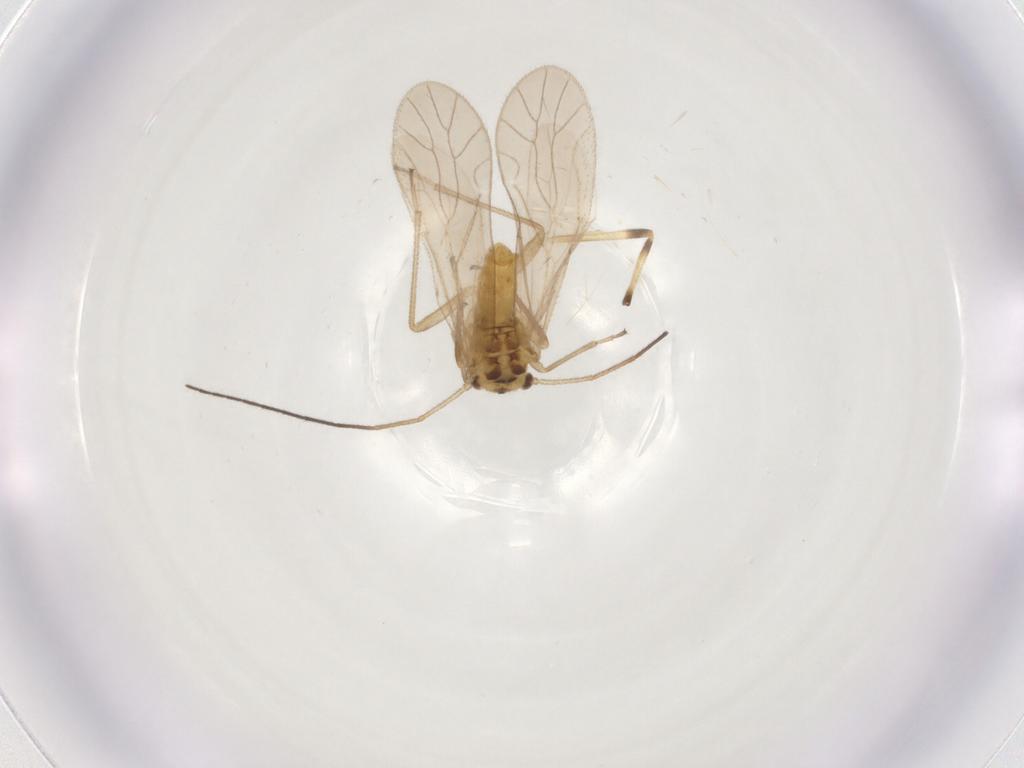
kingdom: Animalia
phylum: Arthropoda
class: Insecta
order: Psocodea
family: Caeciliusidae
